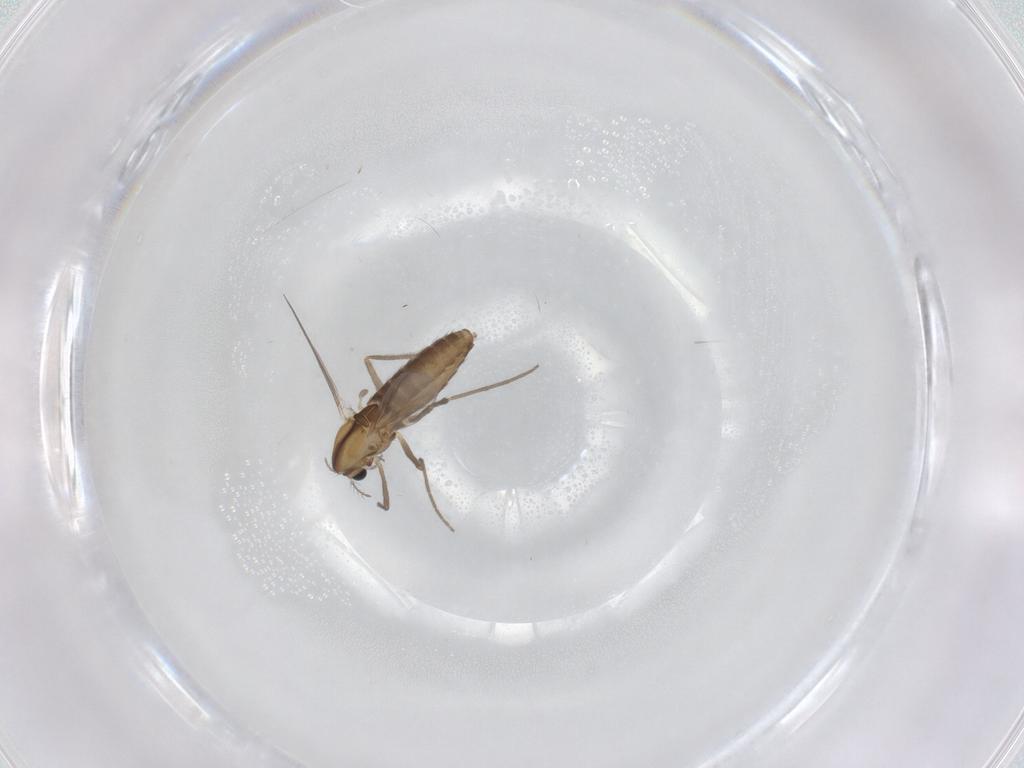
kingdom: Animalia
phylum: Arthropoda
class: Insecta
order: Diptera
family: Chironomidae
